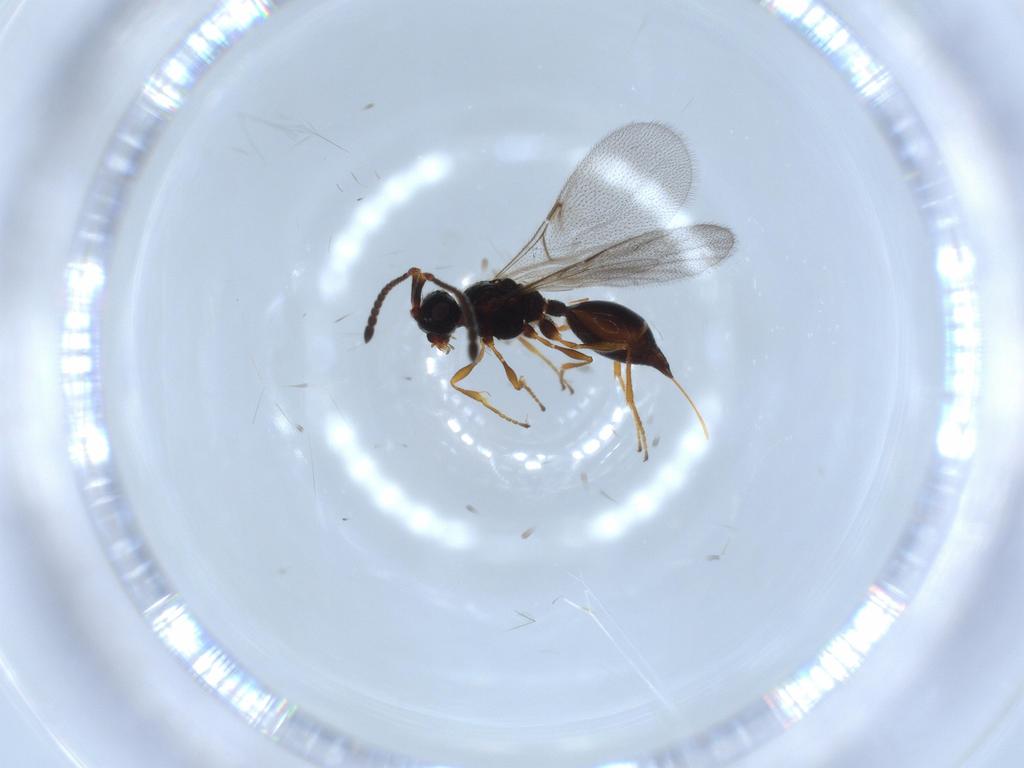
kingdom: Animalia
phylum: Arthropoda
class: Insecta
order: Hymenoptera
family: Diapriidae
